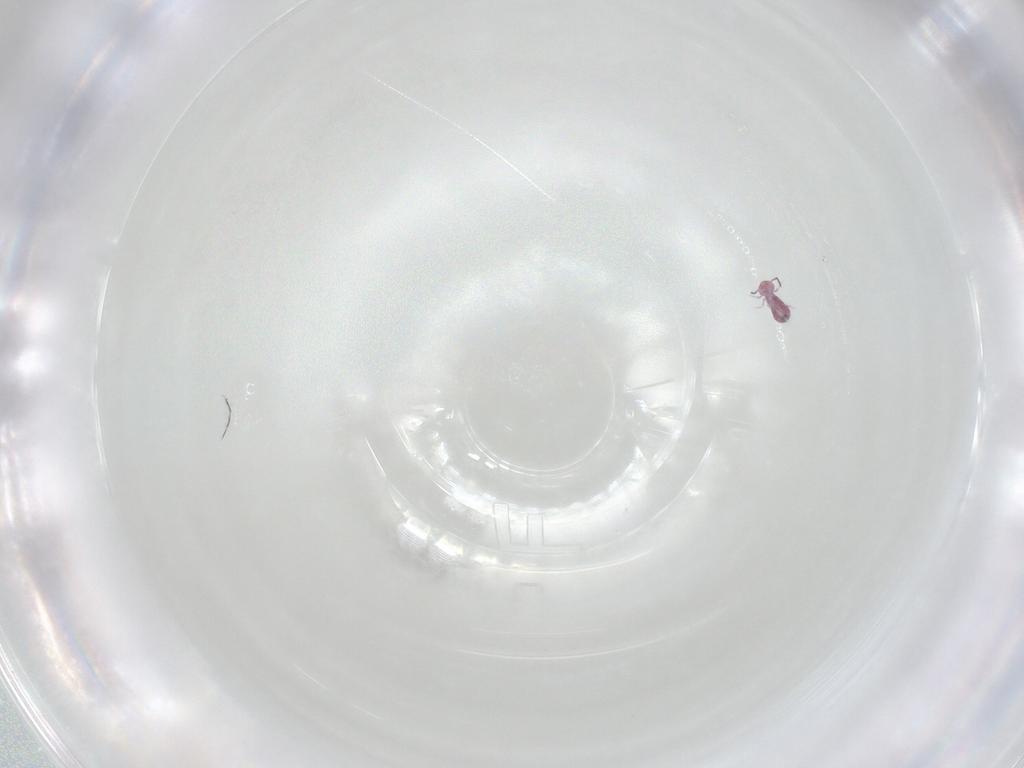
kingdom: Animalia
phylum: Arthropoda
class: Collembola
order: Symphypleona
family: Sminthurididae
